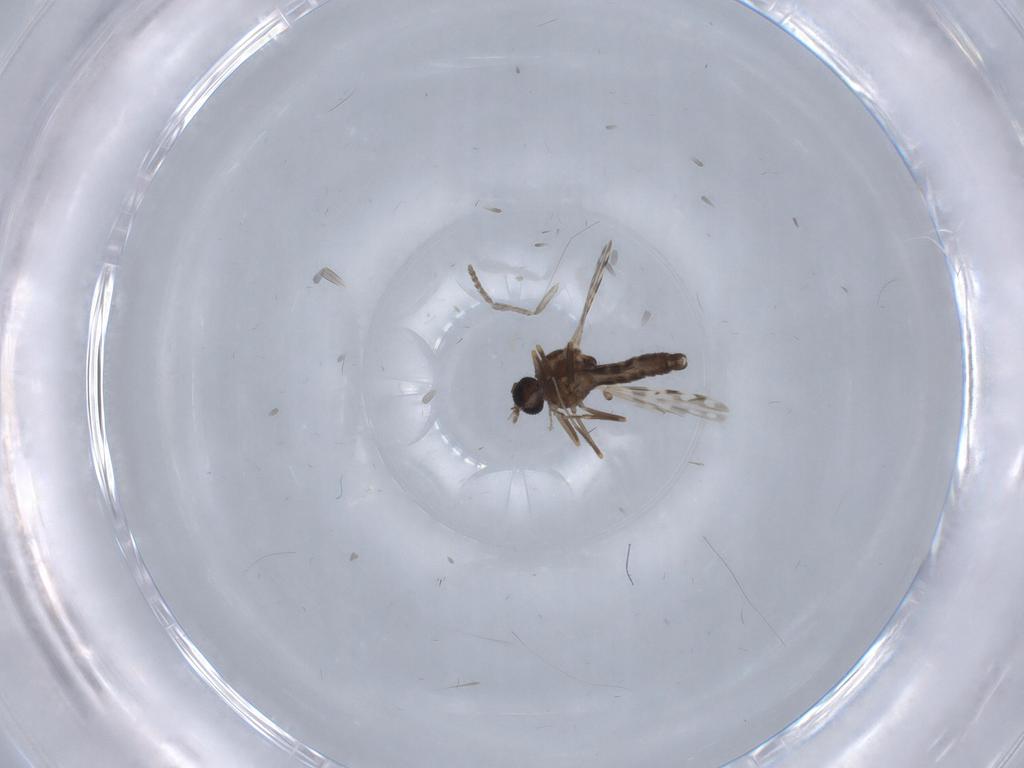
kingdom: Animalia
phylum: Arthropoda
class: Insecta
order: Diptera
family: Ceratopogonidae
